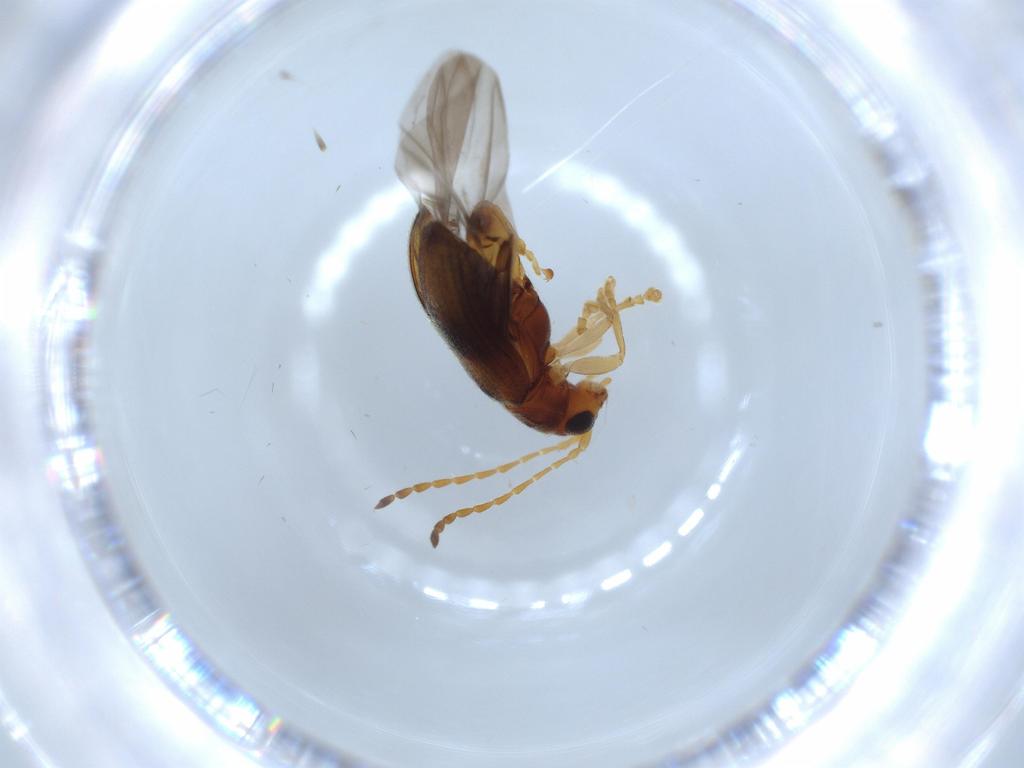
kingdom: Animalia
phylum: Arthropoda
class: Insecta
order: Coleoptera
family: Chrysomelidae
